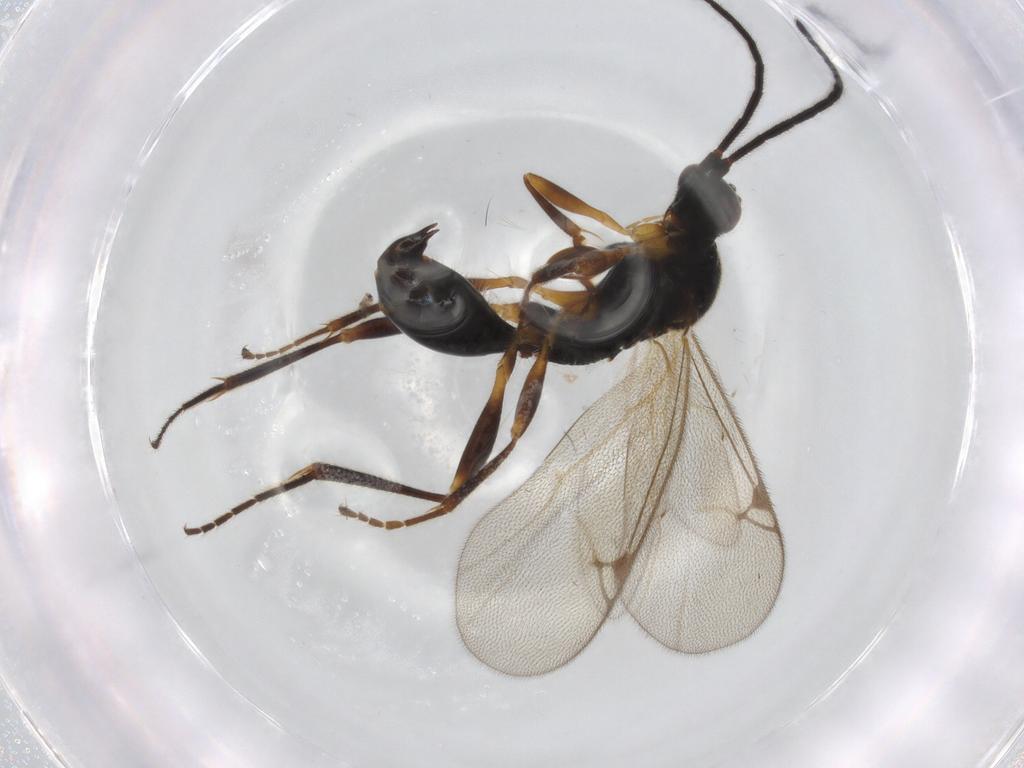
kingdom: Animalia
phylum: Arthropoda
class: Insecta
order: Hymenoptera
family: Proctotrupidae
